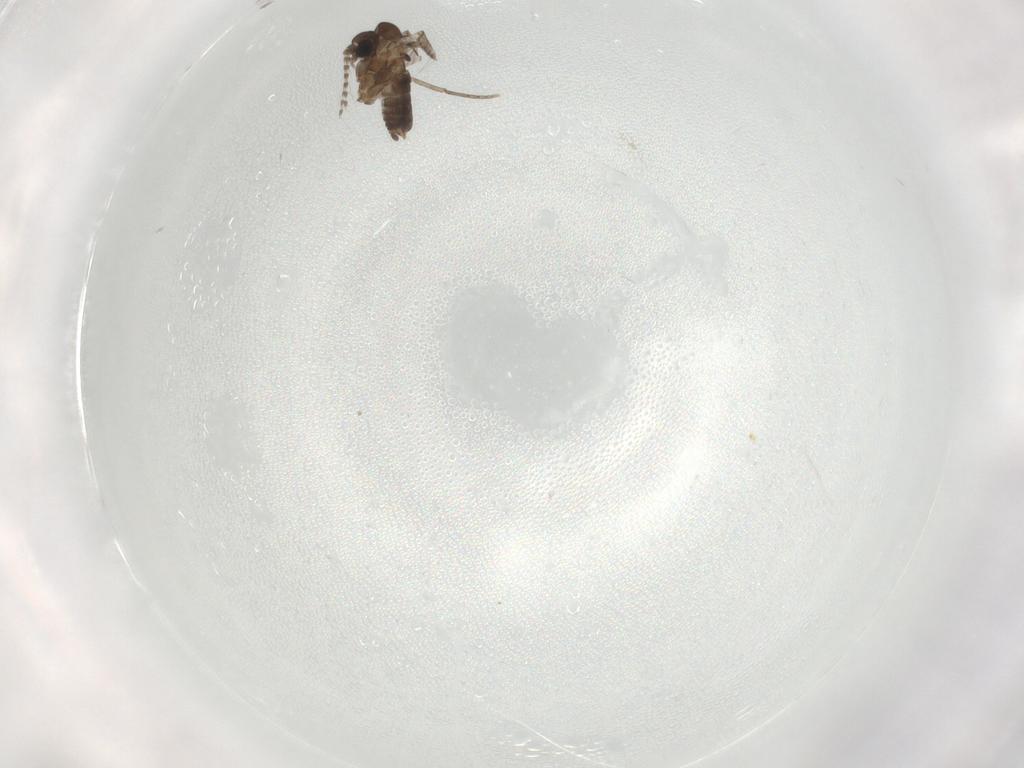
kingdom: Animalia
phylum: Arthropoda
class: Insecta
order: Diptera
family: Psychodidae
